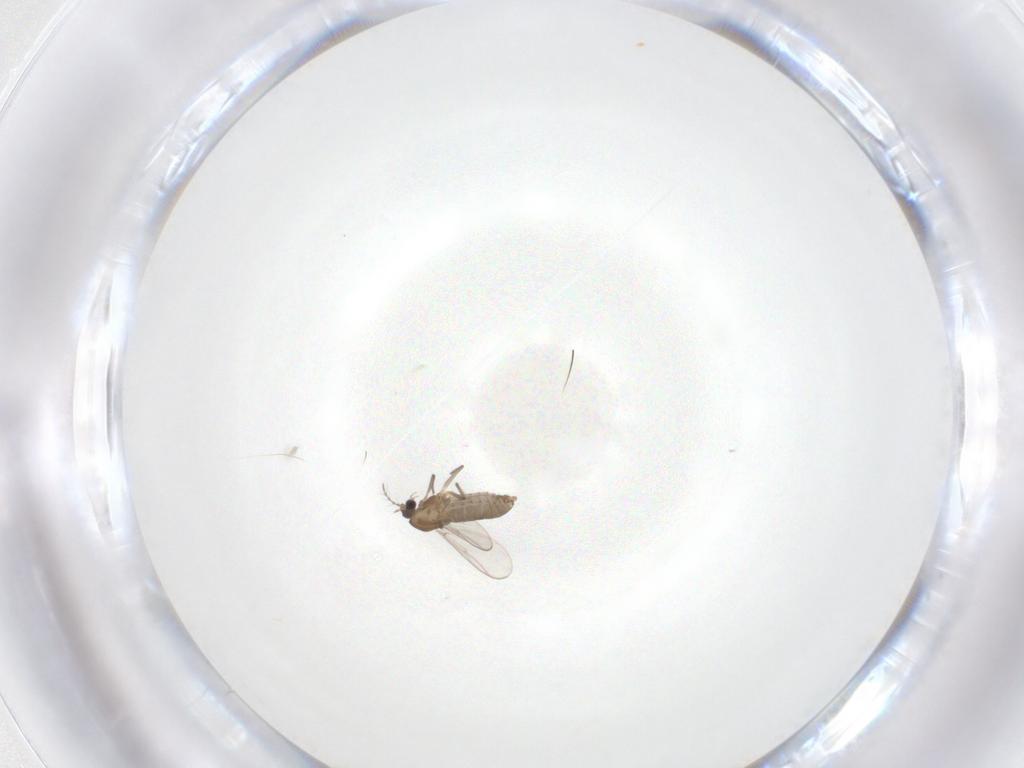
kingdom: Animalia
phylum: Arthropoda
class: Insecta
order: Diptera
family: Chironomidae
